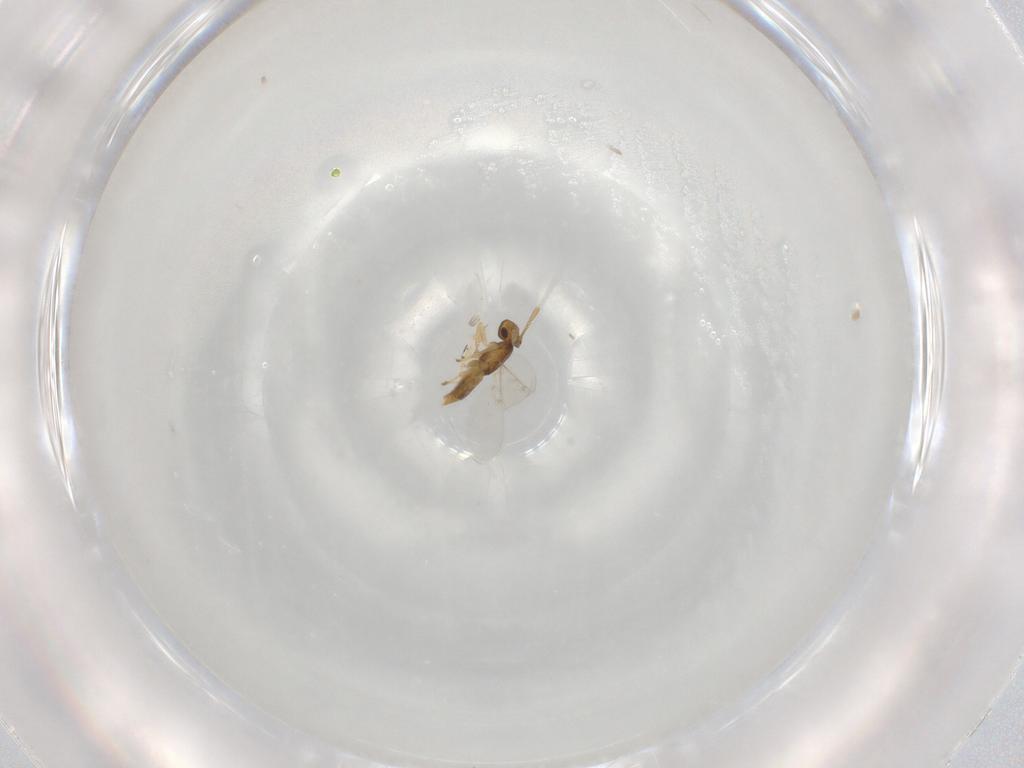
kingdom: Animalia
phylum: Arthropoda
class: Insecta
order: Hymenoptera
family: Encyrtidae
